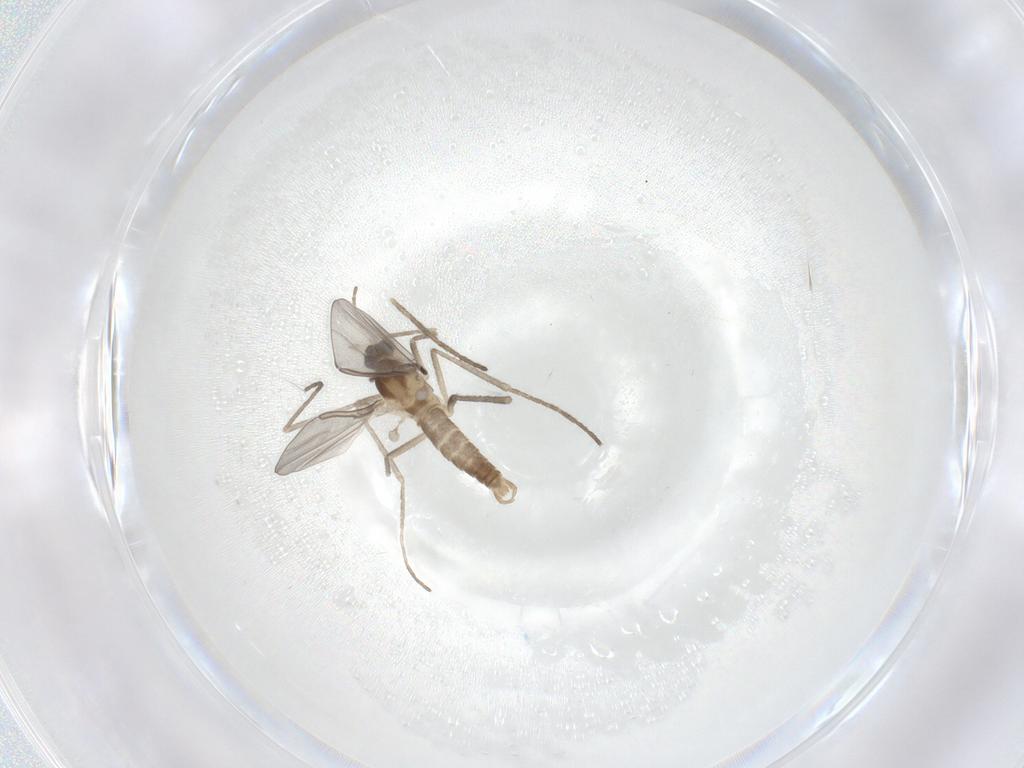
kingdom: Animalia
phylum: Arthropoda
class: Insecta
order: Diptera
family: Cecidomyiidae
